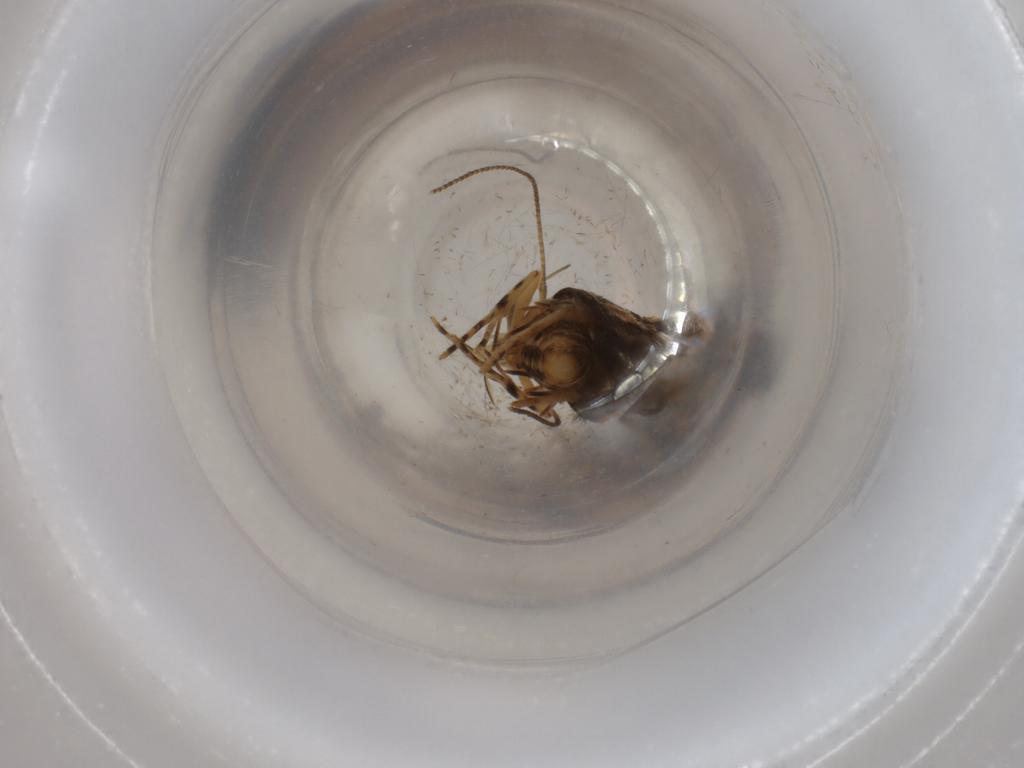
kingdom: Animalia
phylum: Arthropoda
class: Insecta
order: Lepidoptera
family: Cosmopterigidae
